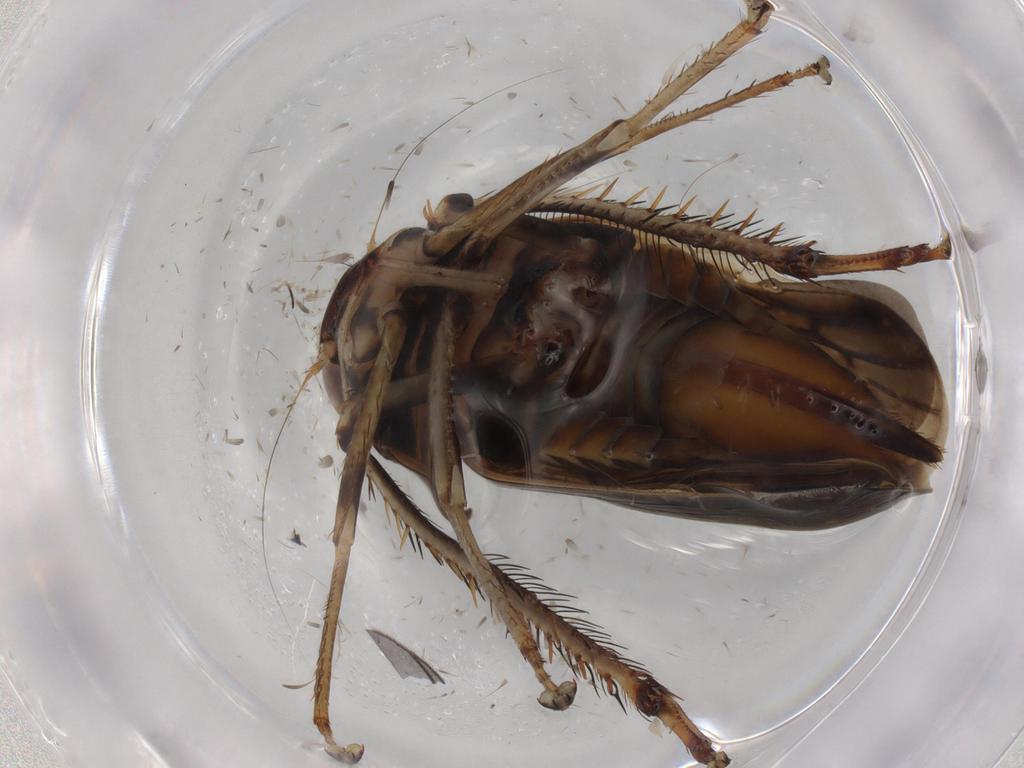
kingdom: Animalia
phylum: Arthropoda
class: Insecta
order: Hemiptera
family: Cicadellidae
